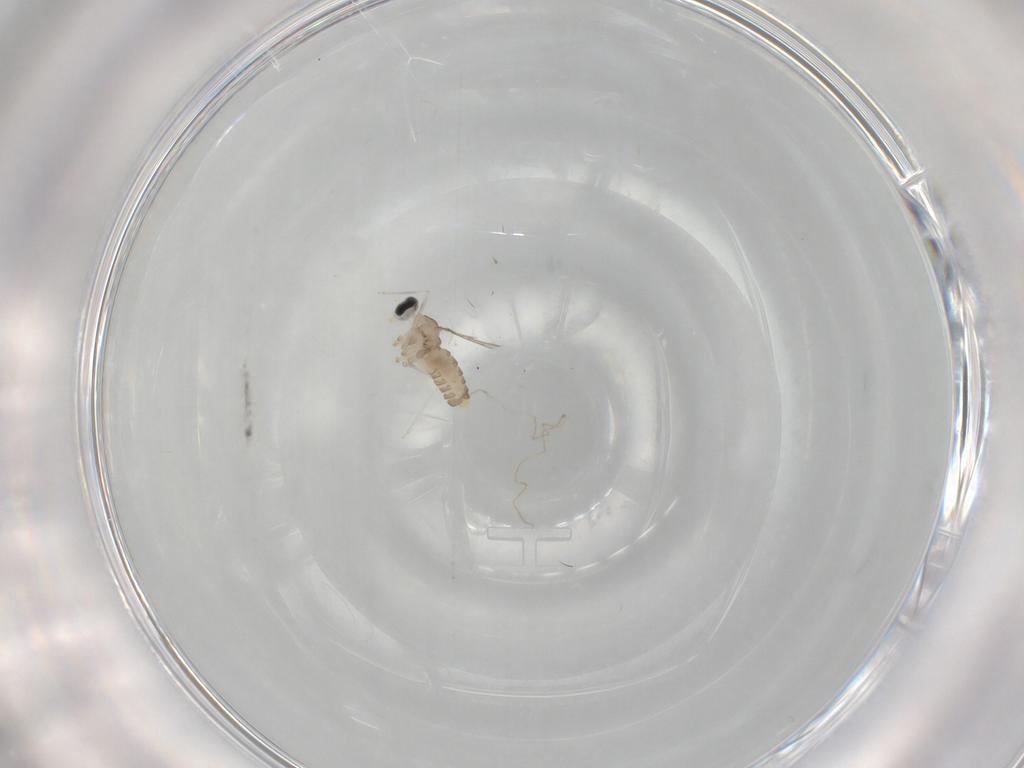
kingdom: Animalia
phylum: Arthropoda
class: Insecta
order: Diptera
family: Cecidomyiidae
